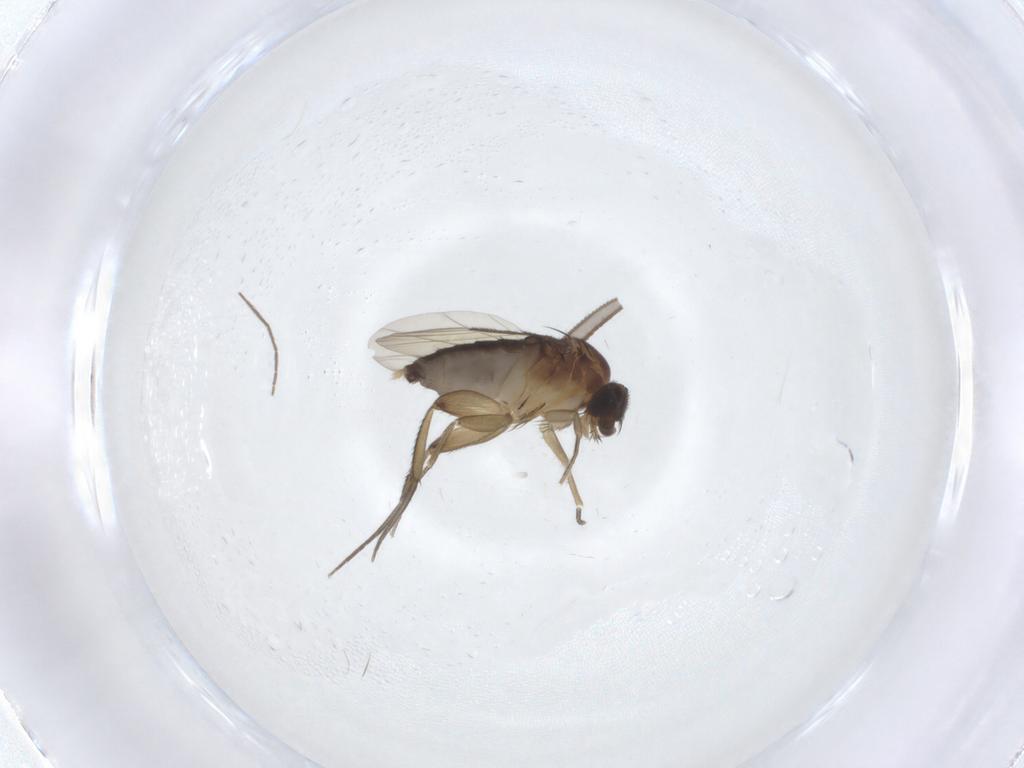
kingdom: Animalia
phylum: Arthropoda
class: Insecta
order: Diptera
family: Phoridae
